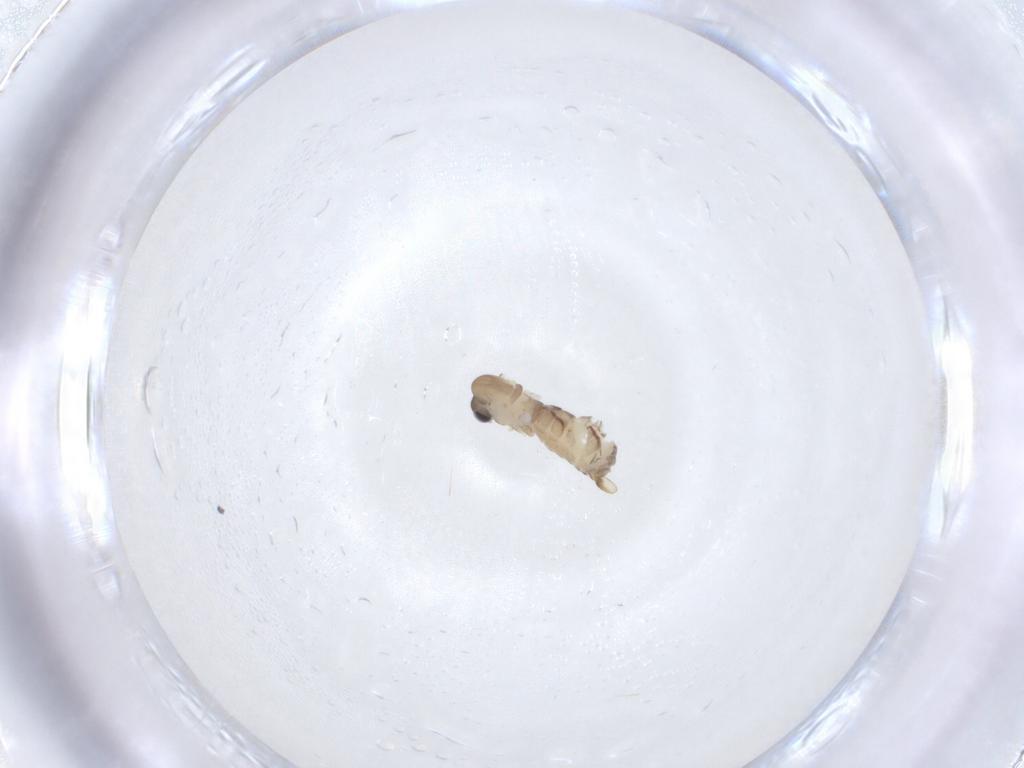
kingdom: Animalia
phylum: Arthropoda
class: Insecta
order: Diptera
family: Psychodidae
